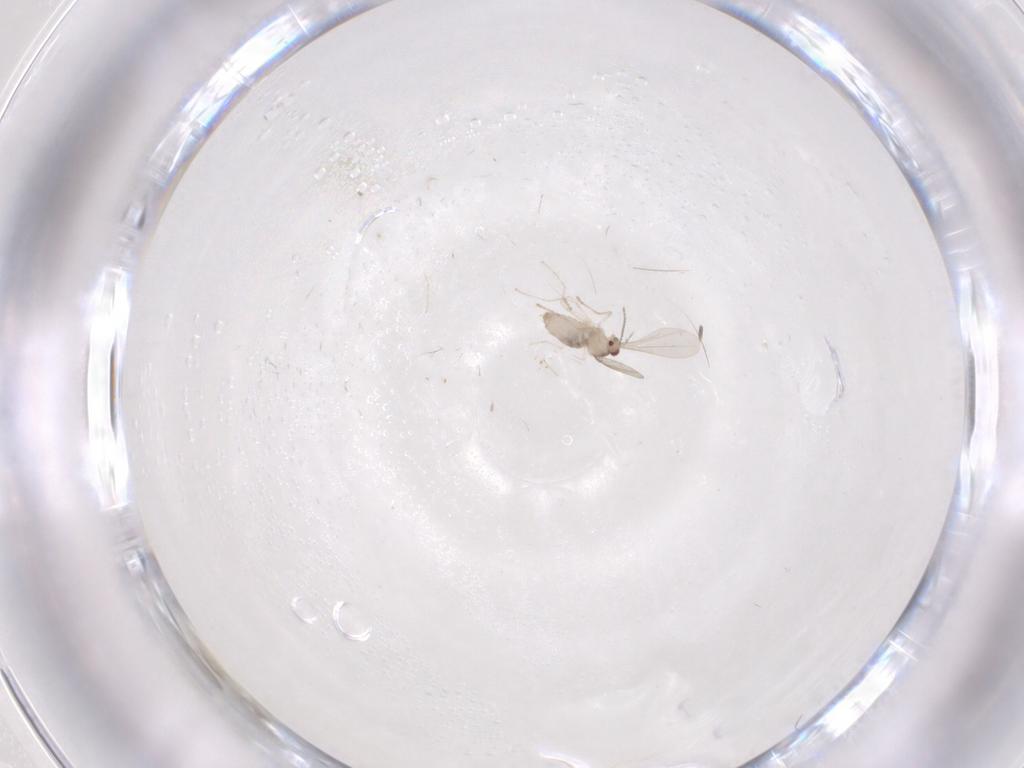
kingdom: Animalia
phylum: Arthropoda
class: Insecta
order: Diptera
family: Cecidomyiidae
